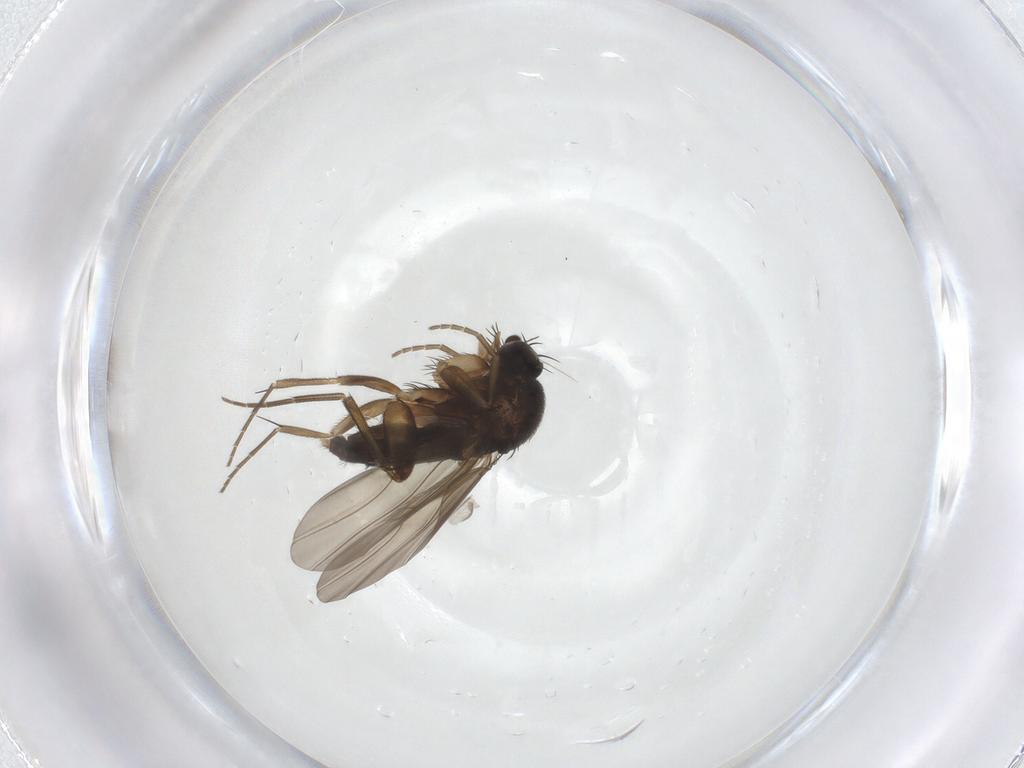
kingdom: Animalia
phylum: Arthropoda
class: Insecta
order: Diptera
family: Phoridae
